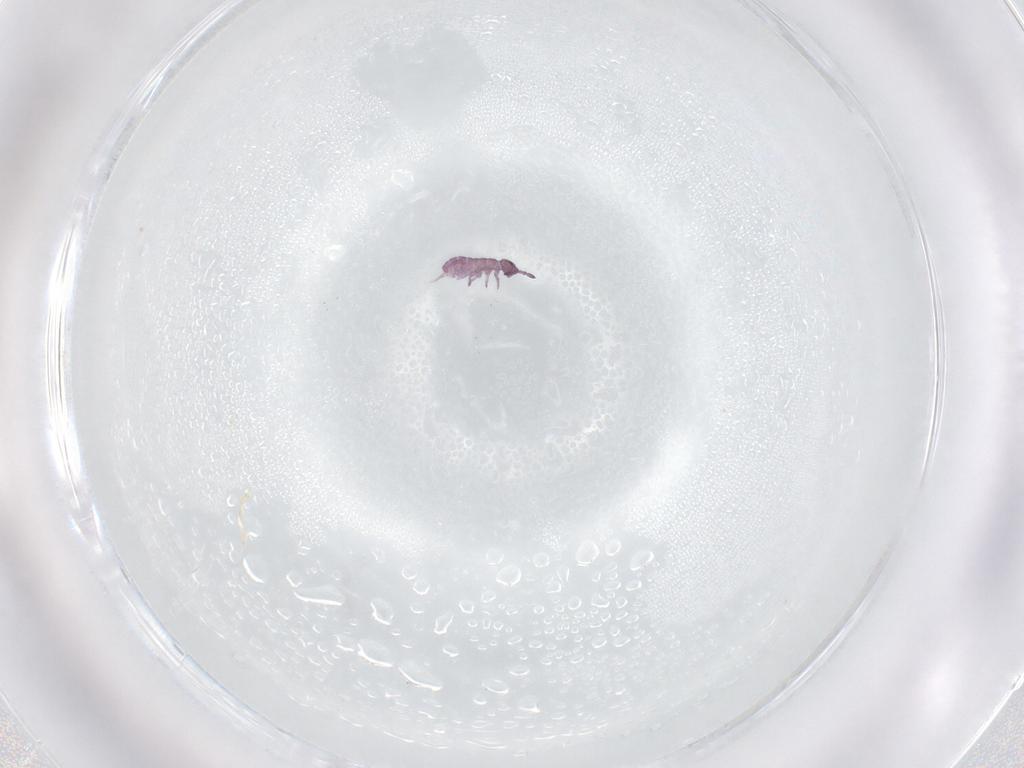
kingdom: Animalia
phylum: Arthropoda
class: Collembola
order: Entomobryomorpha
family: Isotomidae
